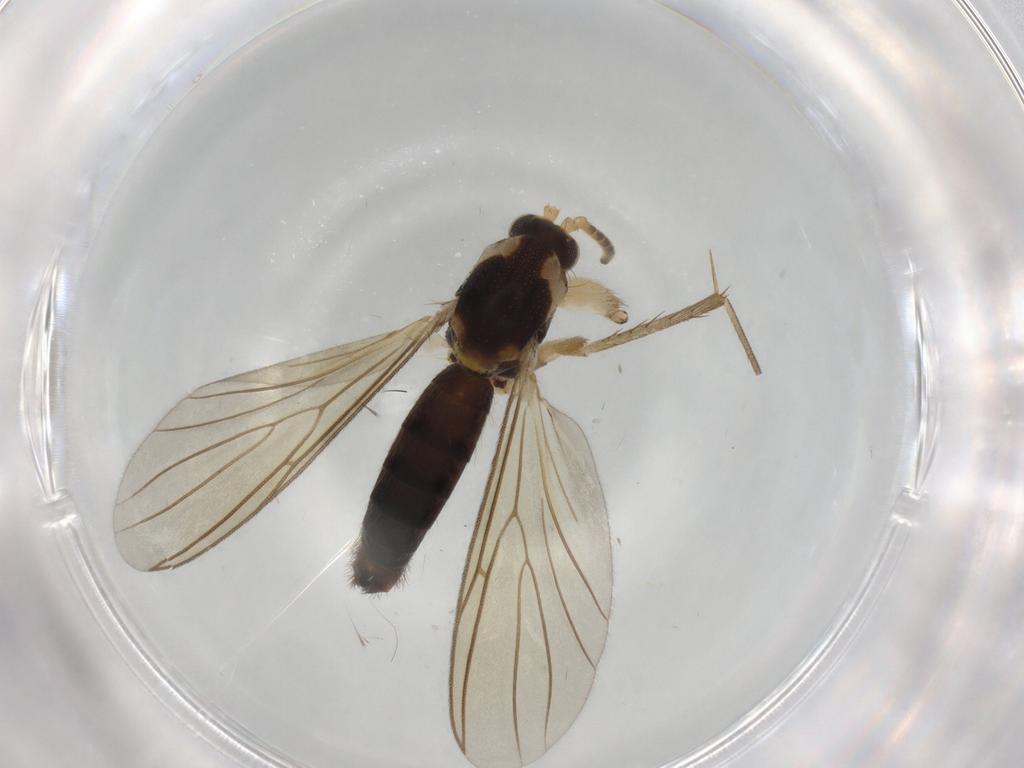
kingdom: Animalia
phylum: Arthropoda
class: Insecta
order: Diptera
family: Mycetophilidae
